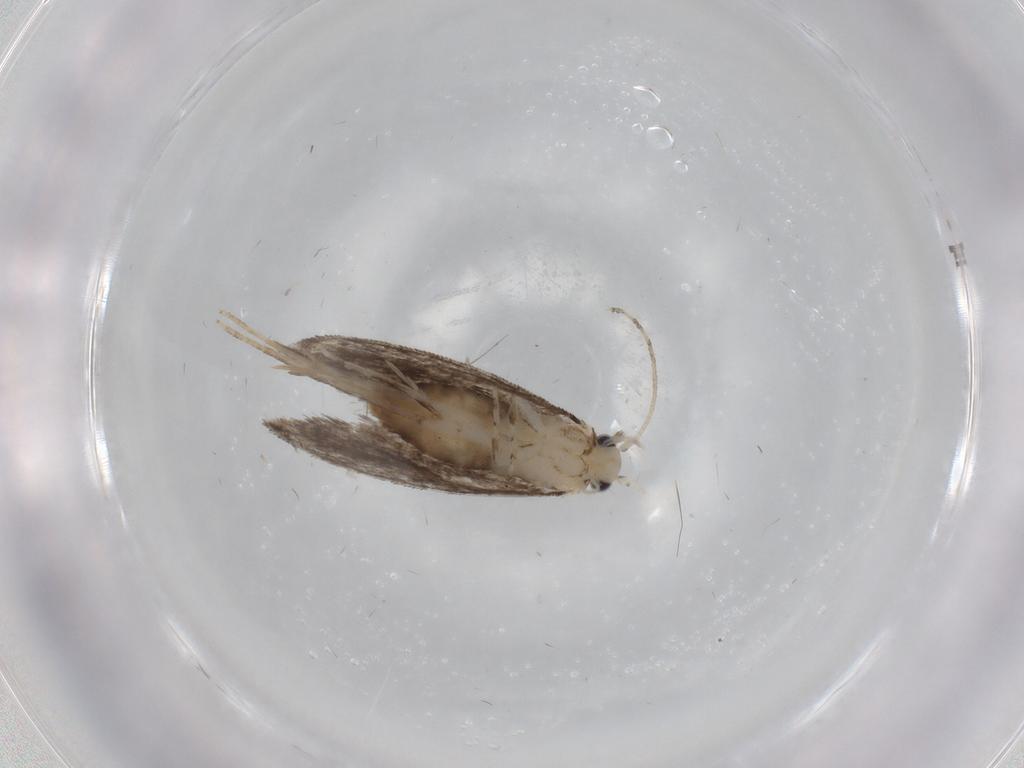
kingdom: Animalia
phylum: Arthropoda
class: Insecta
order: Lepidoptera
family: Tineidae
